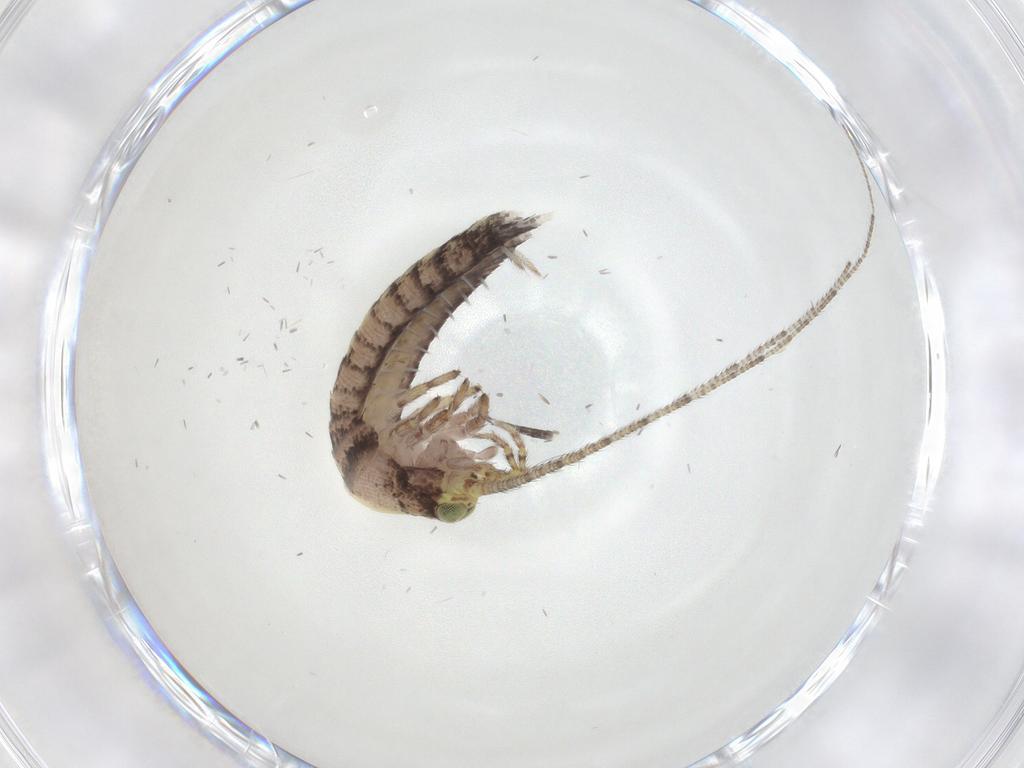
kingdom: Animalia
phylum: Arthropoda
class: Insecta
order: Archaeognatha
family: Machilidae
